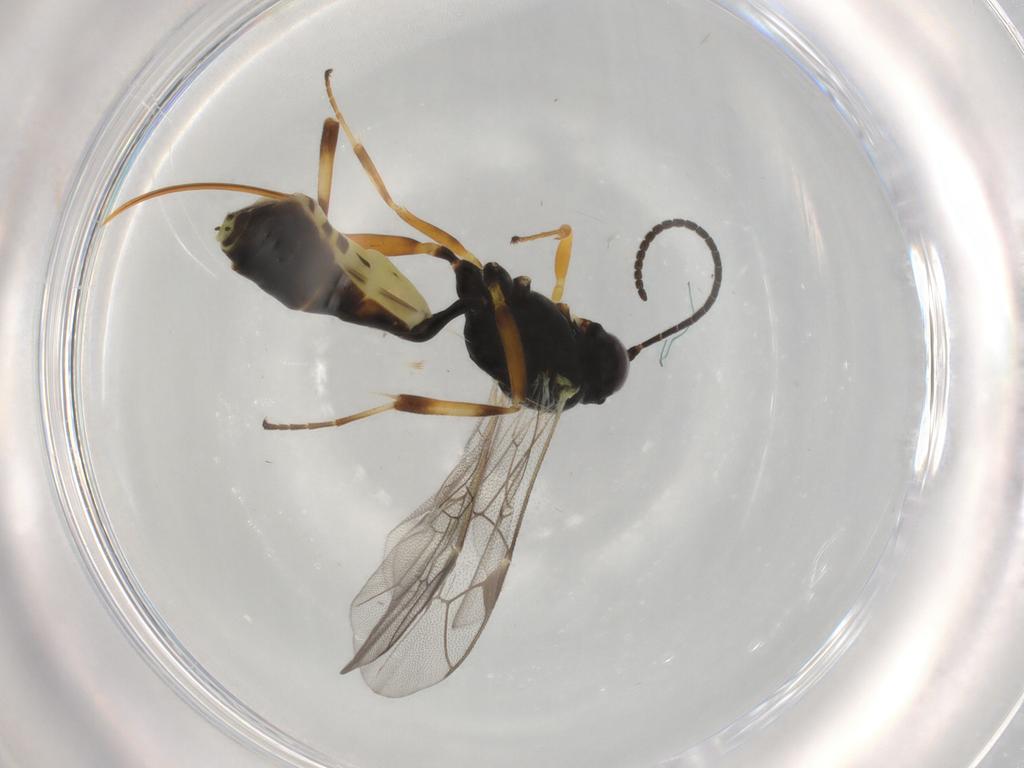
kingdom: Animalia
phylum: Arthropoda
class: Insecta
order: Hymenoptera
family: Ichneumonidae
